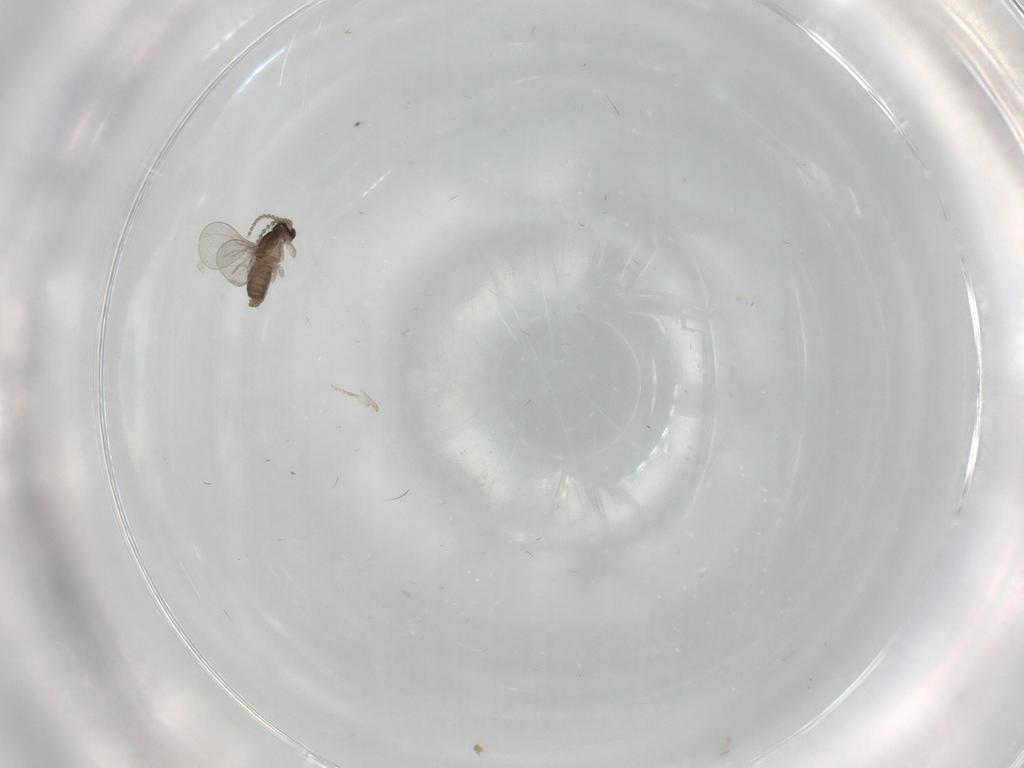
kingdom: Animalia
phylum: Arthropoda
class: Insecta
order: Diptera
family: Cecidomyiidae
